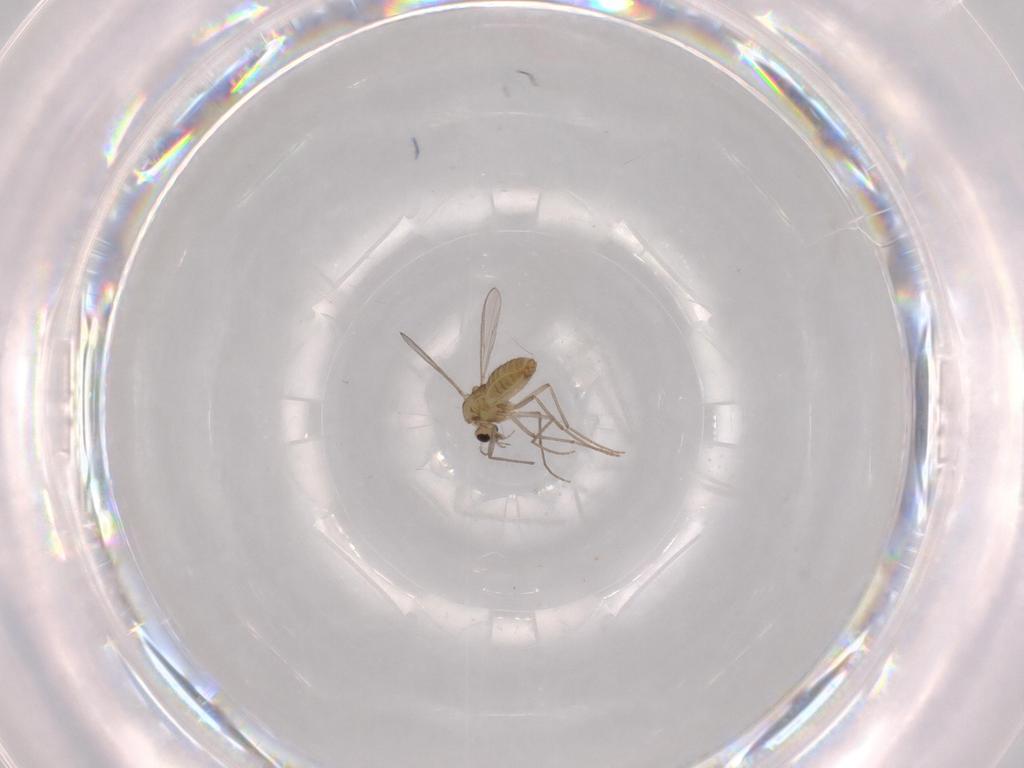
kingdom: Animalia
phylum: Arthropoda
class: Insecta
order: Diptera
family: Chironomidae
